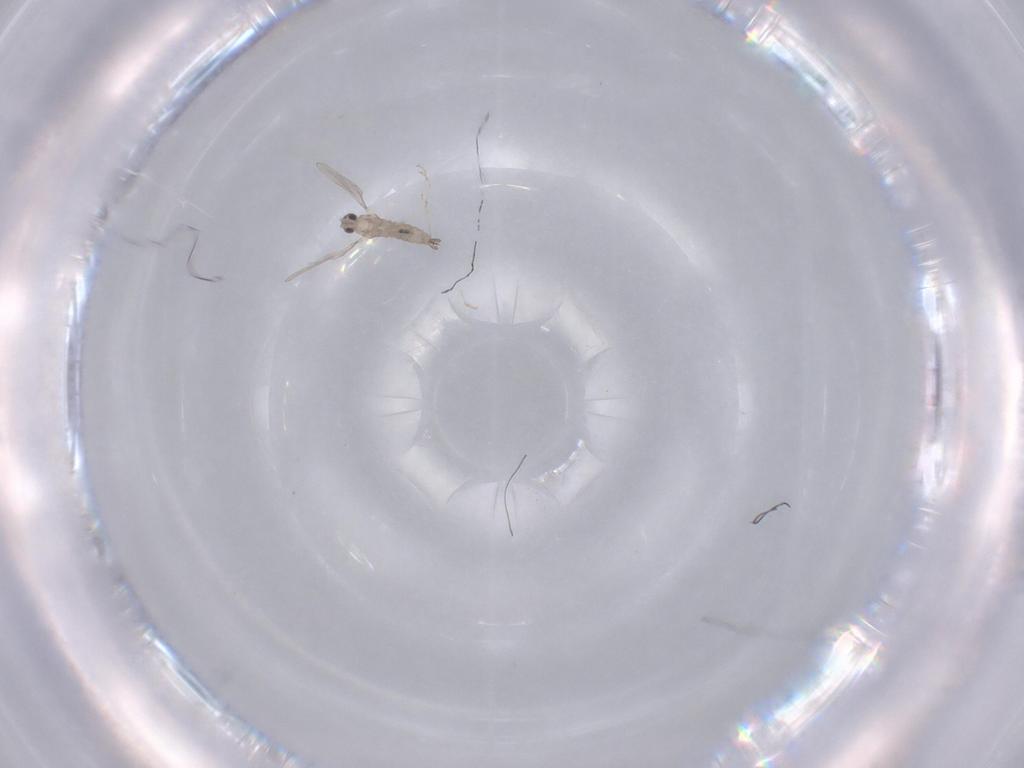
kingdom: Animalia
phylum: Arthropoda
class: Insecta
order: Diptera
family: Cecidomyiidae
